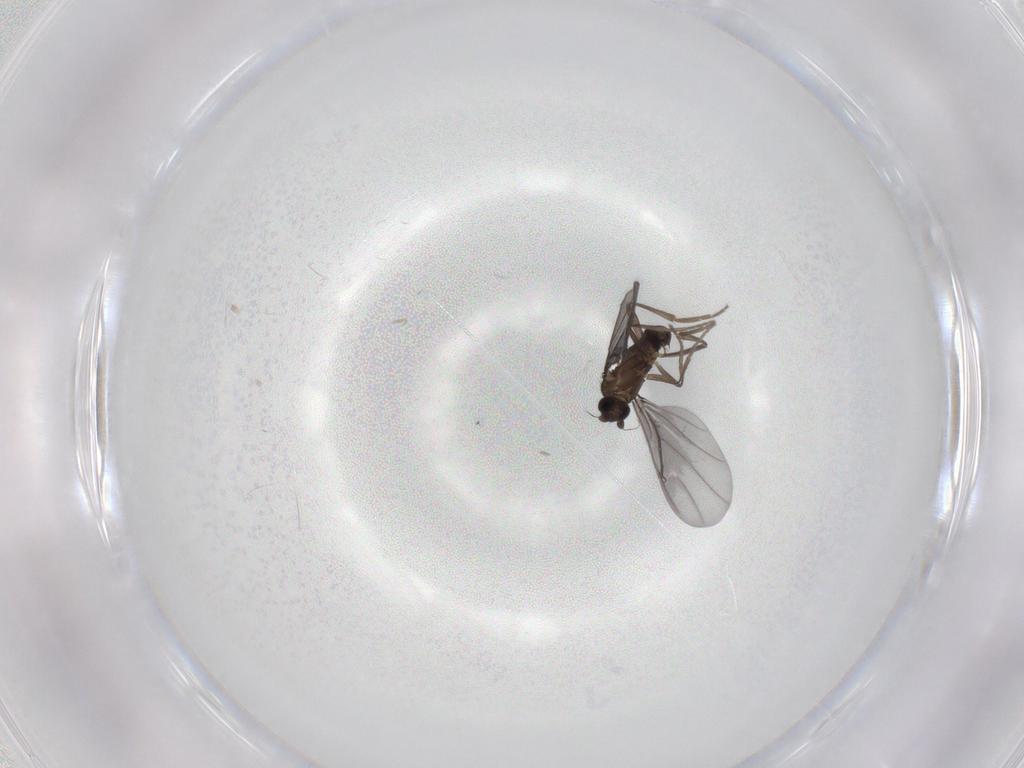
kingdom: Animalia
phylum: Arthropoda
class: Insecta
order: Diptera
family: Phoridae
